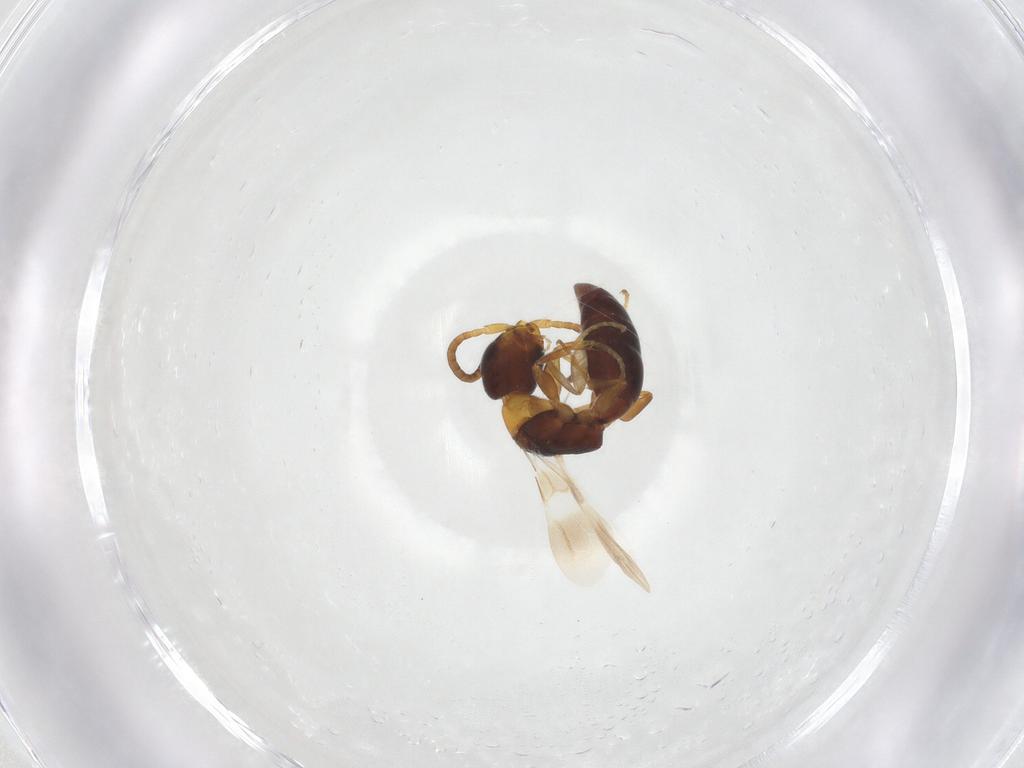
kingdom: Animalia
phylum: Arthropoda
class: Insecta
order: Hymenoptera
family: Bethylidae
